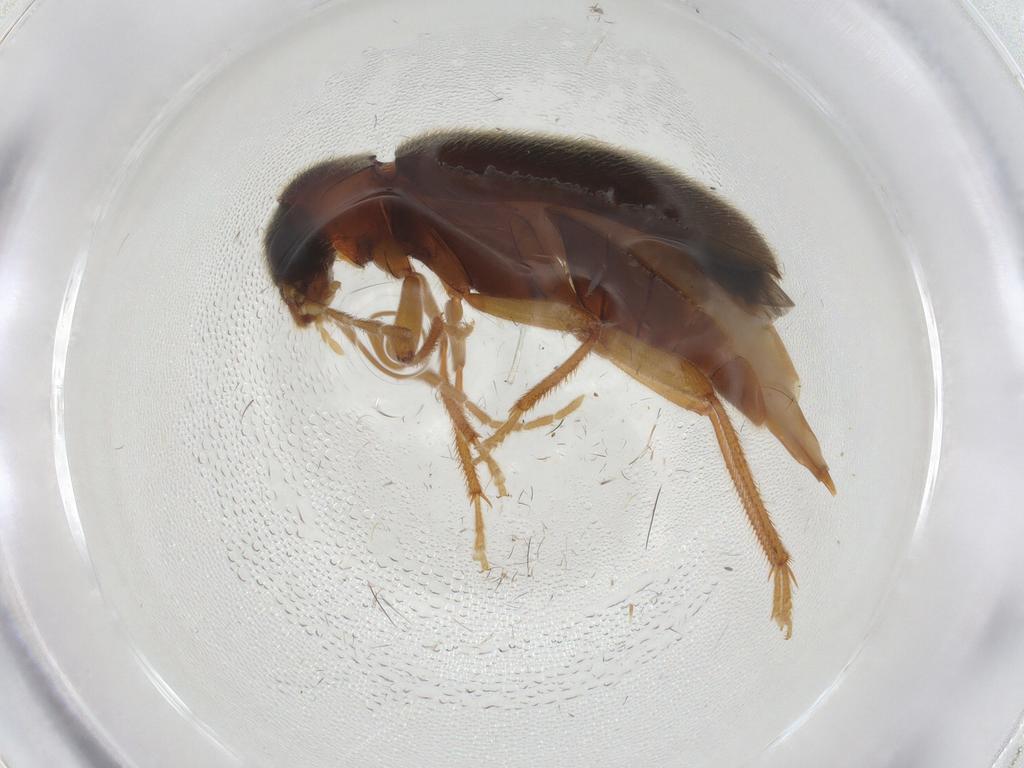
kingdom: Animalia
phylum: Arthropoda
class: Insecta
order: Coleoptera
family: Ptilodactylidae
